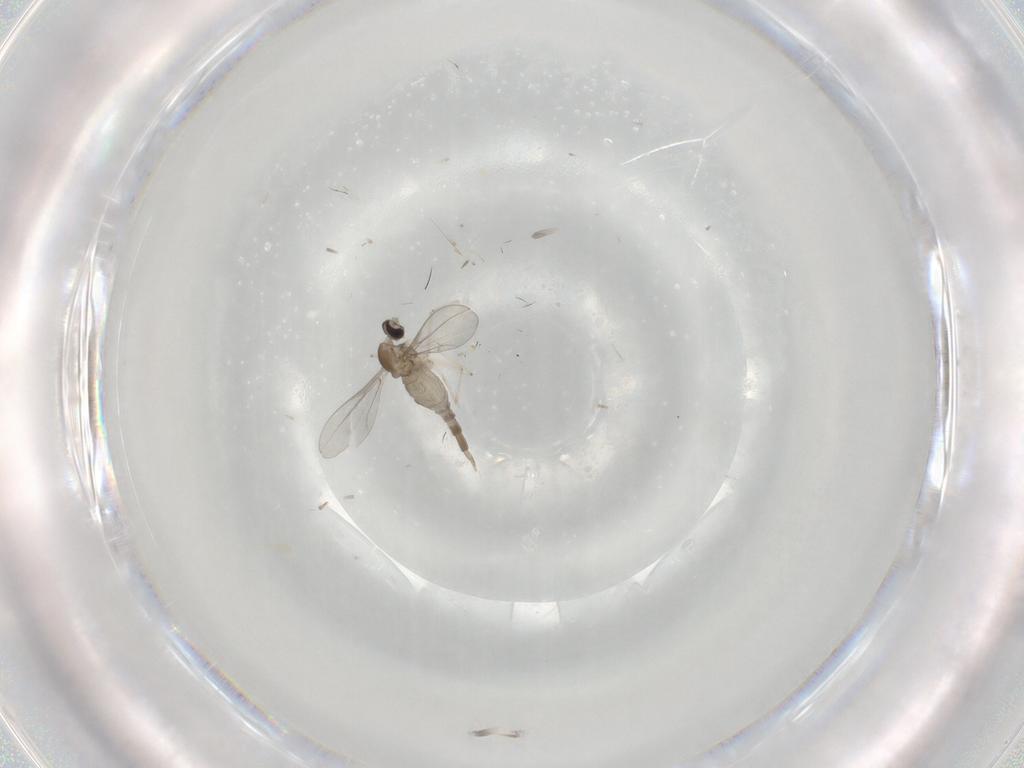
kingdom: Animalia
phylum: Arthropoda
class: Insecta
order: Diptera
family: Cecidomyiidae
